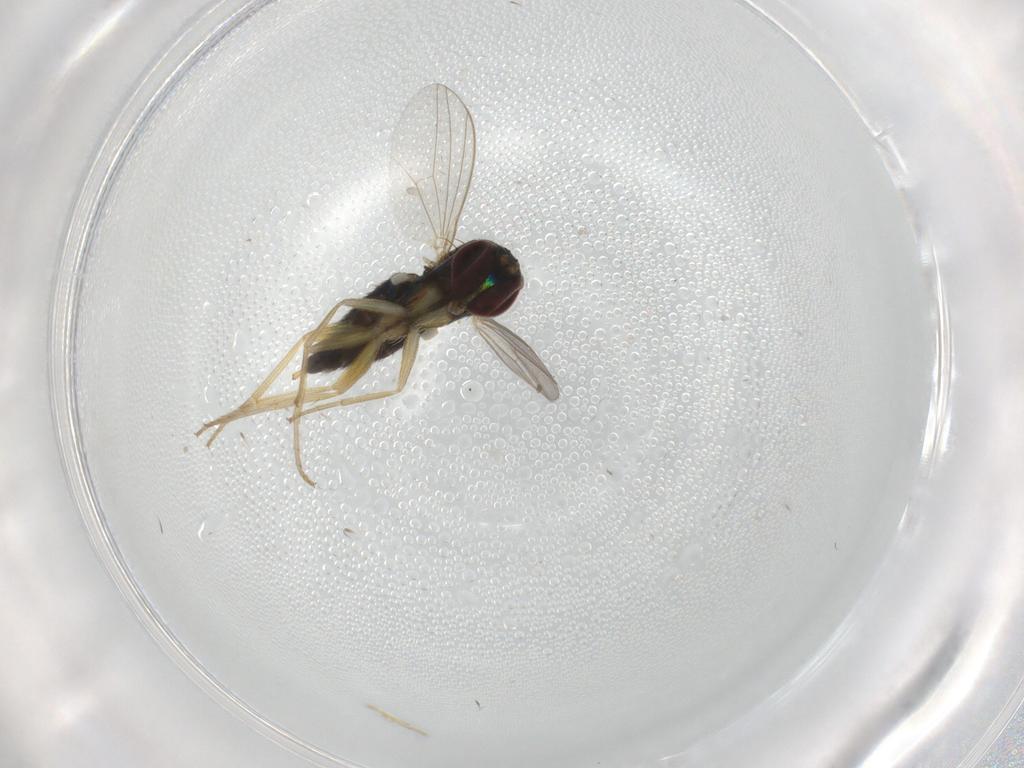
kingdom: Animalia
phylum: Arthropoda
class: Insecta
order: Diptera
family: Dolichopodidae
